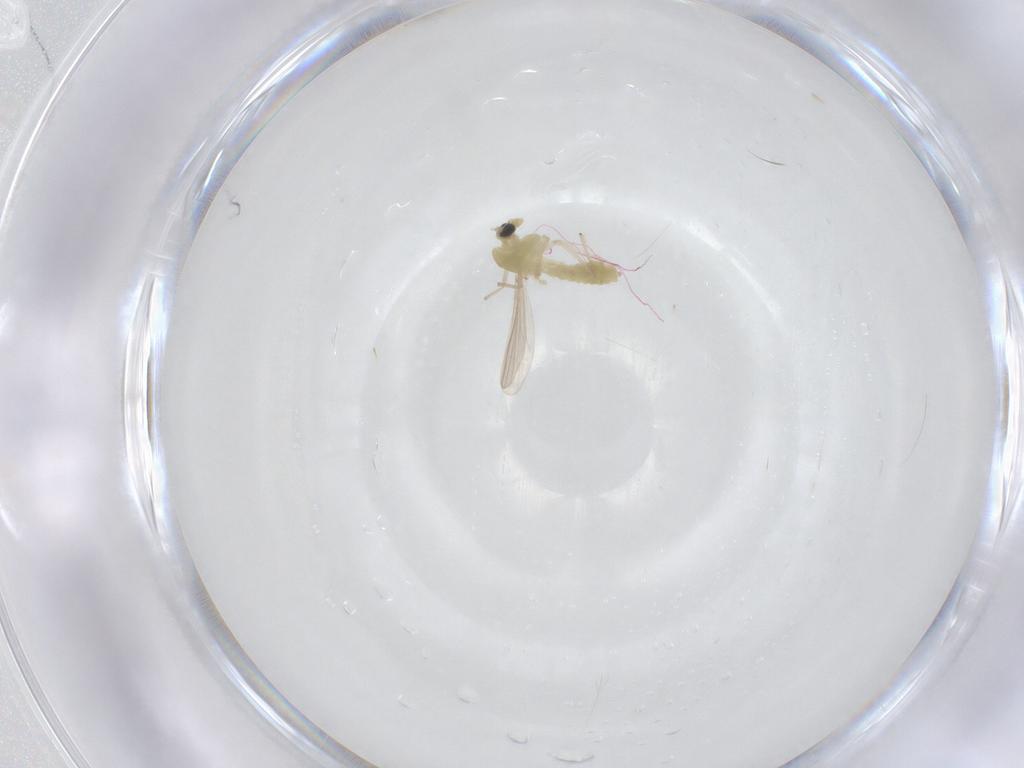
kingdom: Animalia
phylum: Arthropoda
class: Insecta
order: Diptera
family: Chironomidae
